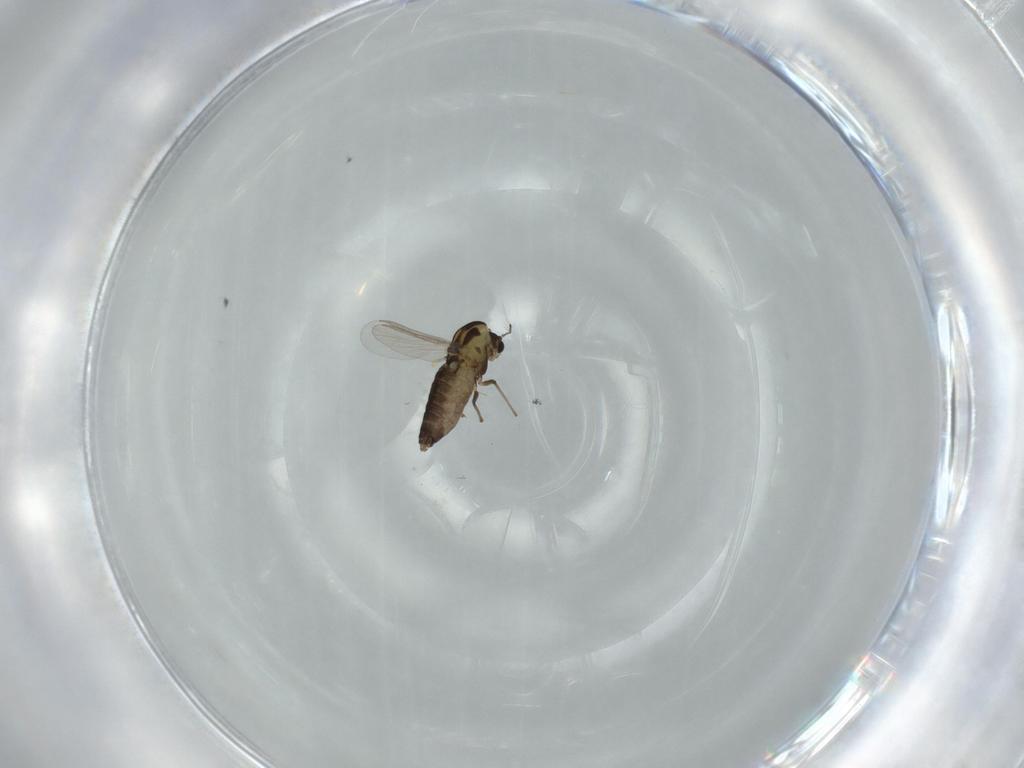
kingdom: Animalia
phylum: Arthropoda
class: Insecta
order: Diptera
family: Chironomidae
